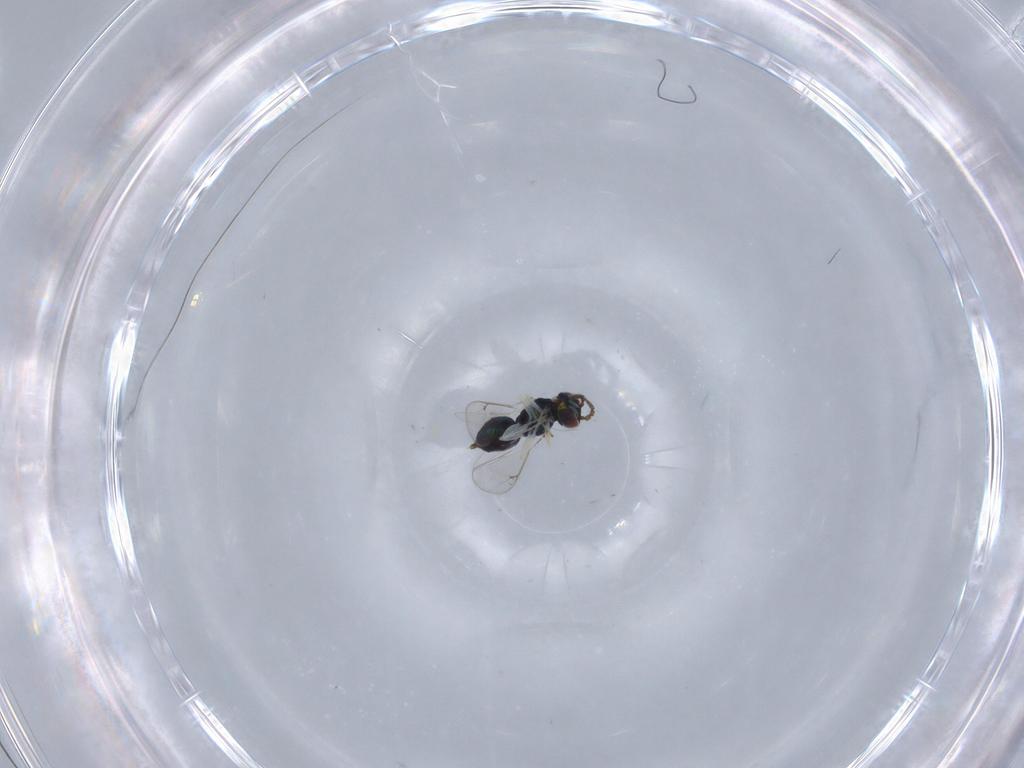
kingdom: Animalia
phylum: Arthropoda
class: Insecta
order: Hymenoptera
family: Eulophidae
